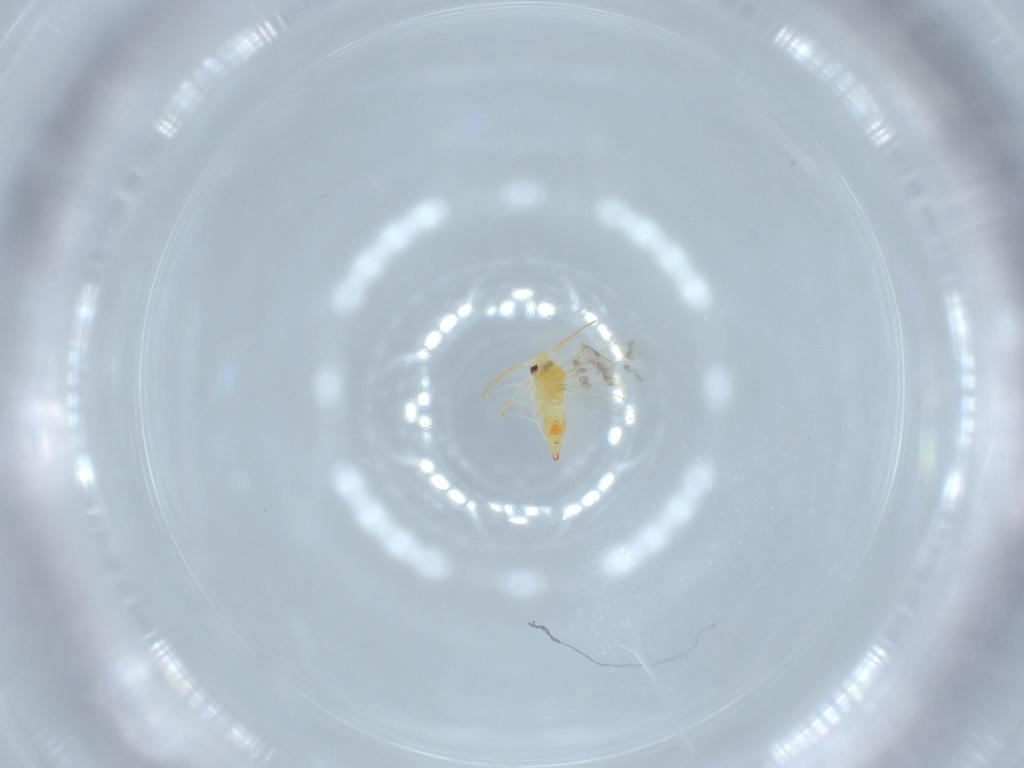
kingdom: Animalia
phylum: Arthropoda
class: Insecta
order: Hemiptera
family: Aleyrodidae
